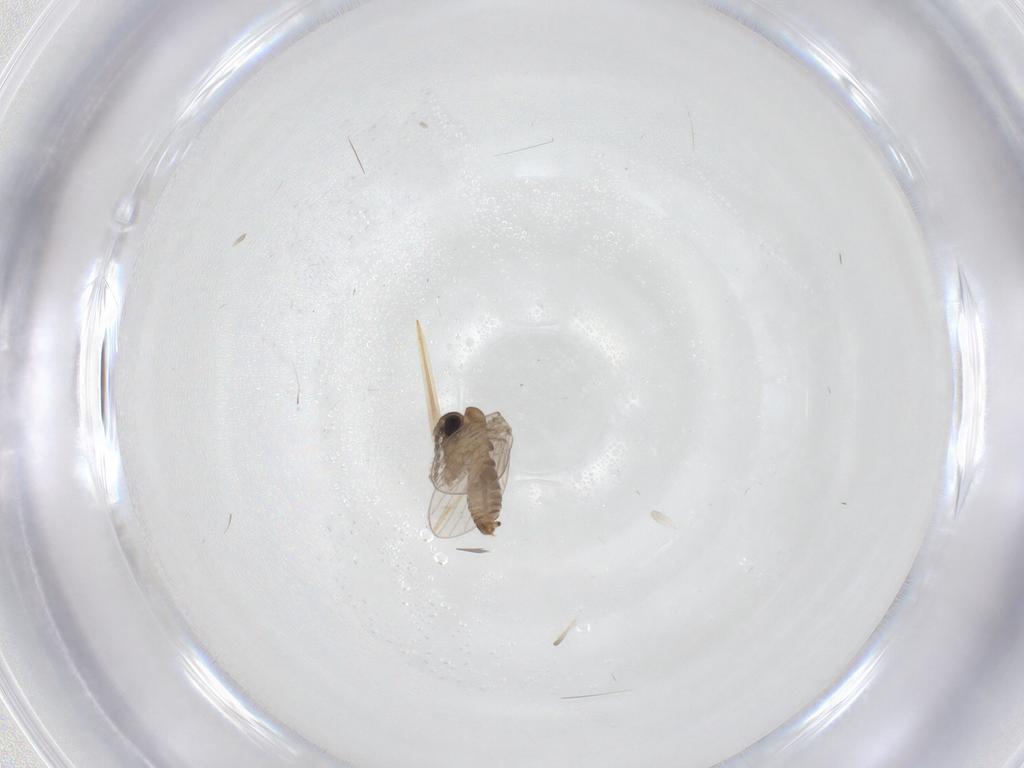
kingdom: Animalia
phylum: Arthropoda
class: Insecta
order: Diptera
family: Psychodidae
